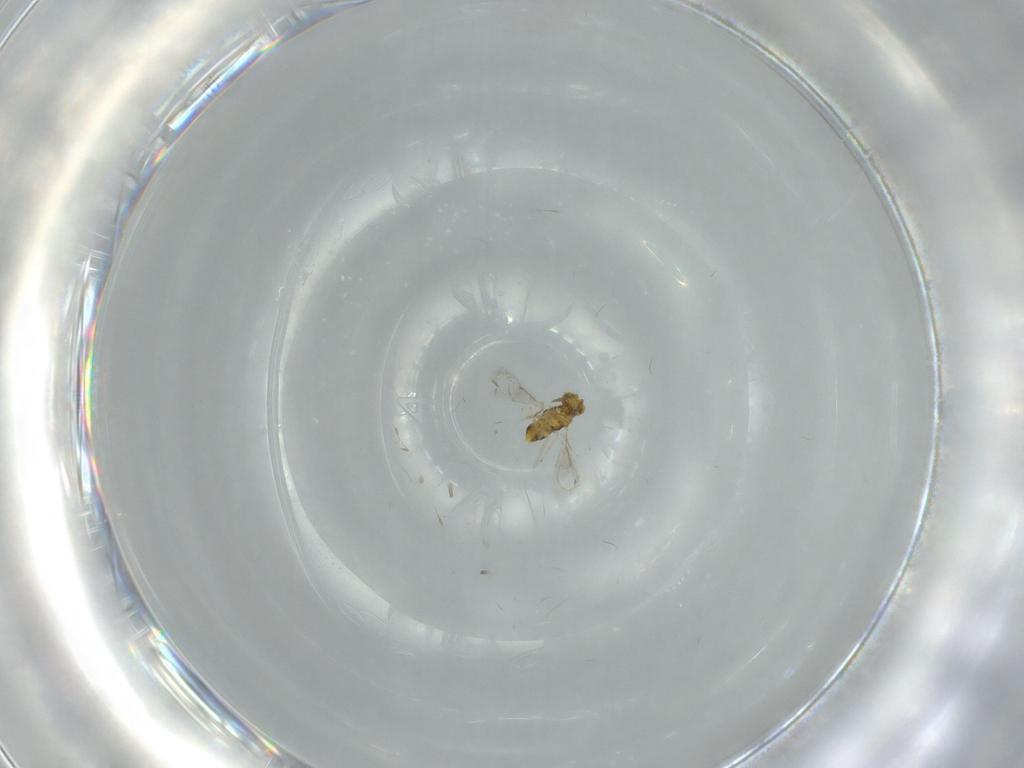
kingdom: Animalia
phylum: Arthropoda
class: Insecta
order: Hymenoptera
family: Aphelinidae
